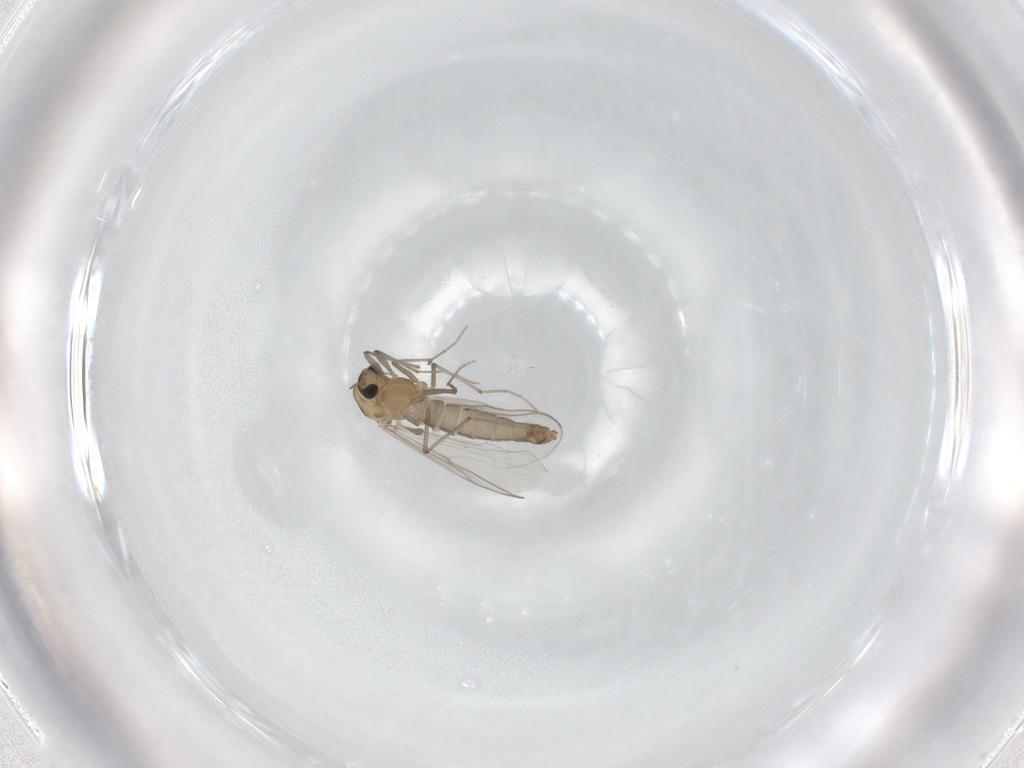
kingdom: Animalia
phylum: Arthropoda
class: Insecta
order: Diptera
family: Chironomidae
